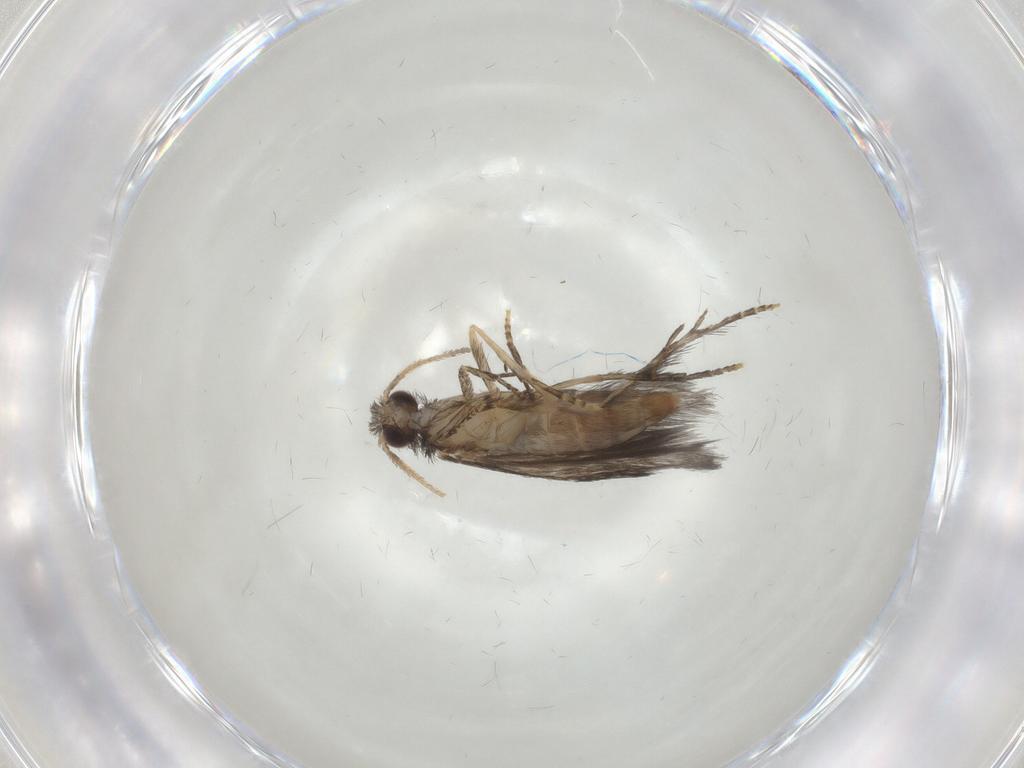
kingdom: Animalia
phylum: Arthropoda
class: Insecta
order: Trichoptera
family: Hydroptilidae
